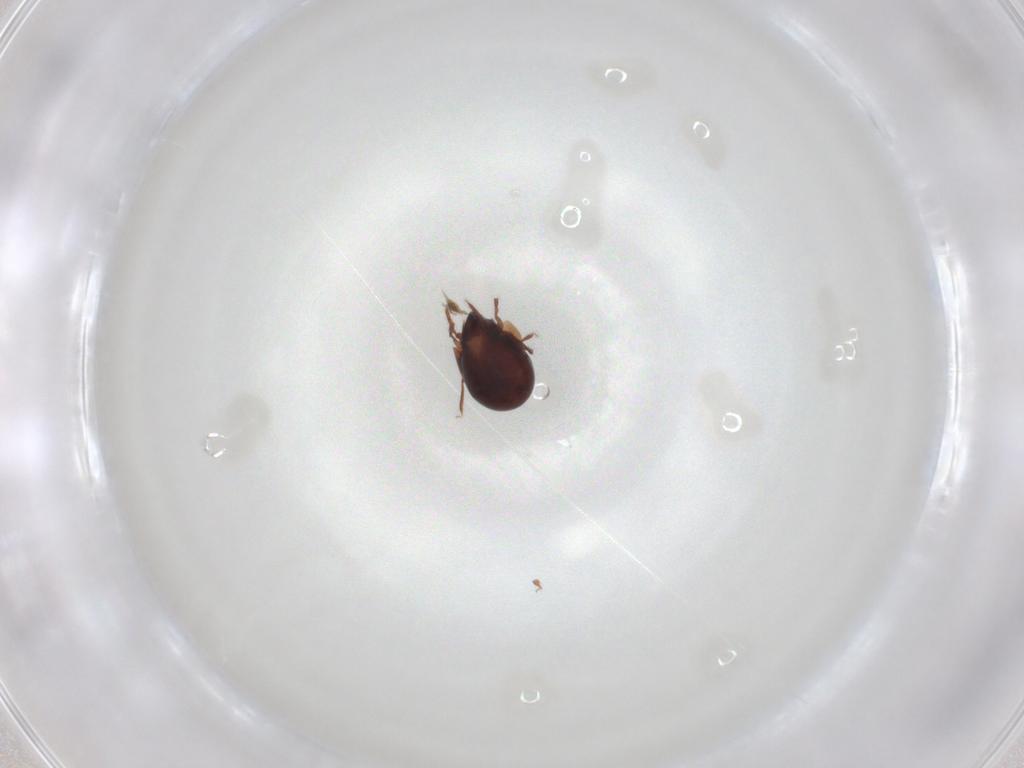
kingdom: Animalia
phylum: Arthropoda
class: Arachnida
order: Sarcoptiformes
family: Humerobatidae
